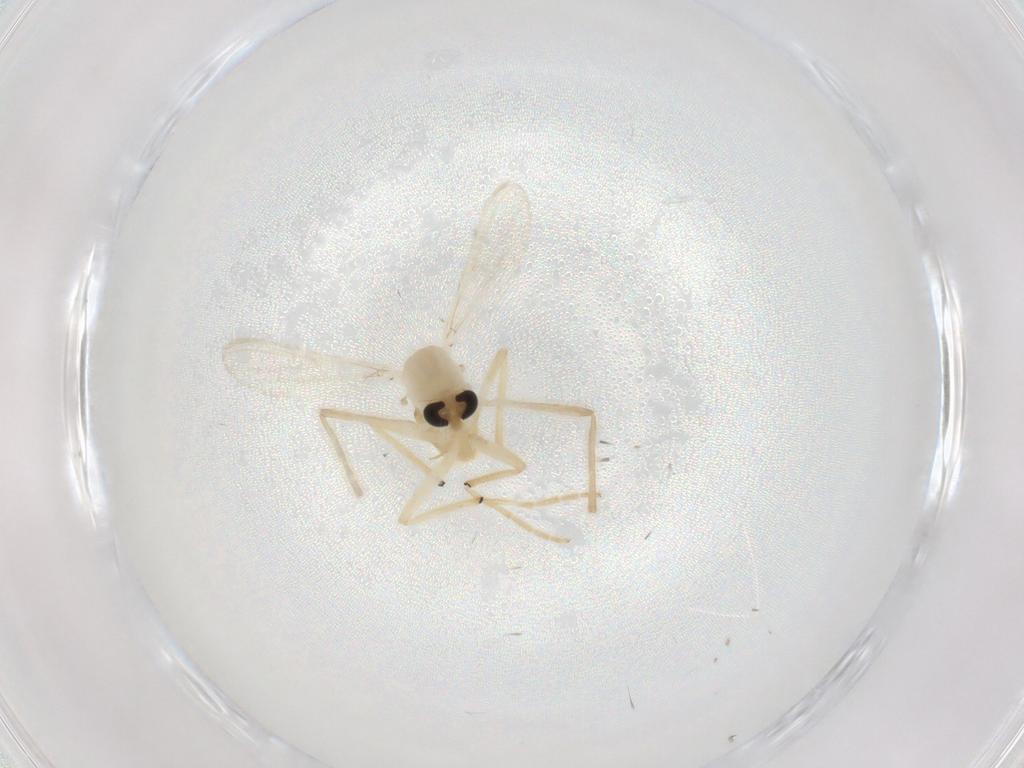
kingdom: Animalia
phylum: Arthropoda
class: Insecta
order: Diptera
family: Chironomidae
